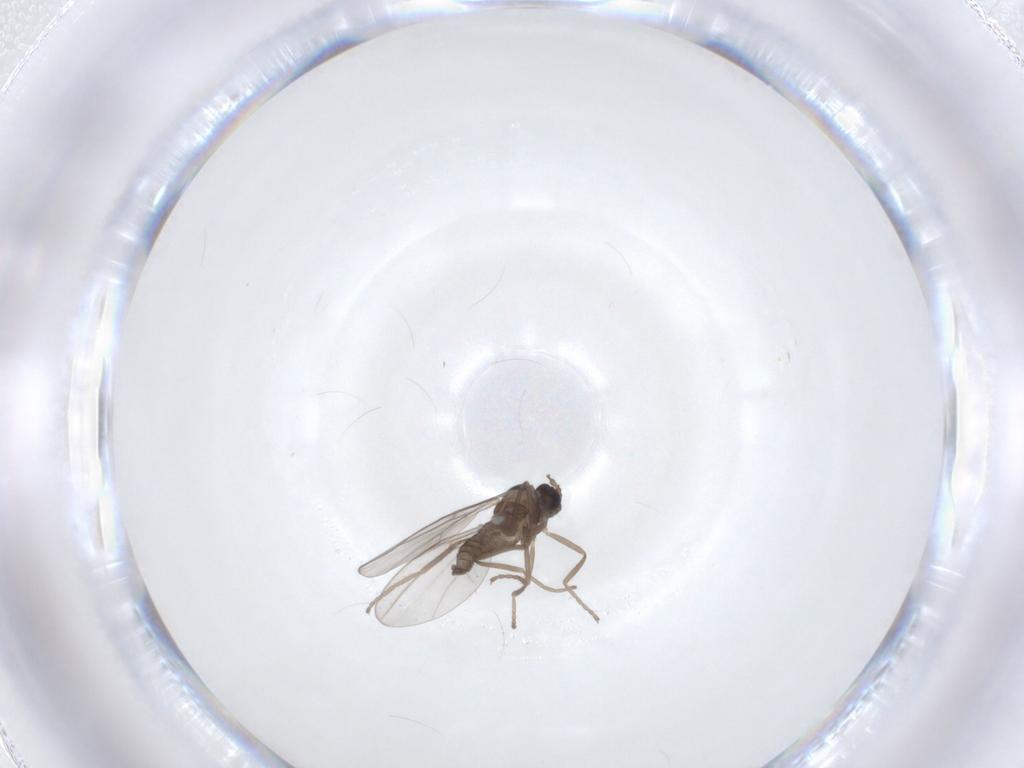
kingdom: Animalia
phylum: Arthropoda
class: Insecta
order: Diptera
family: Cecidomyiidae
